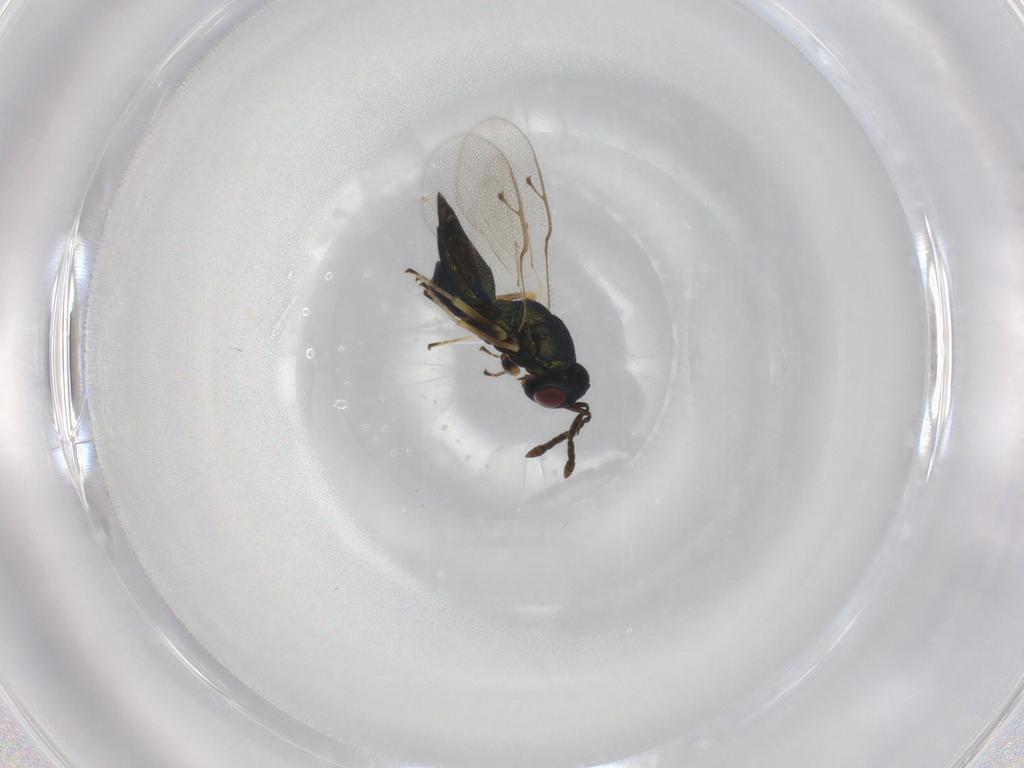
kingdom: Animalia
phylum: Arthropoda
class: Insecta
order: Hymenoptera
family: Pteromalidae
